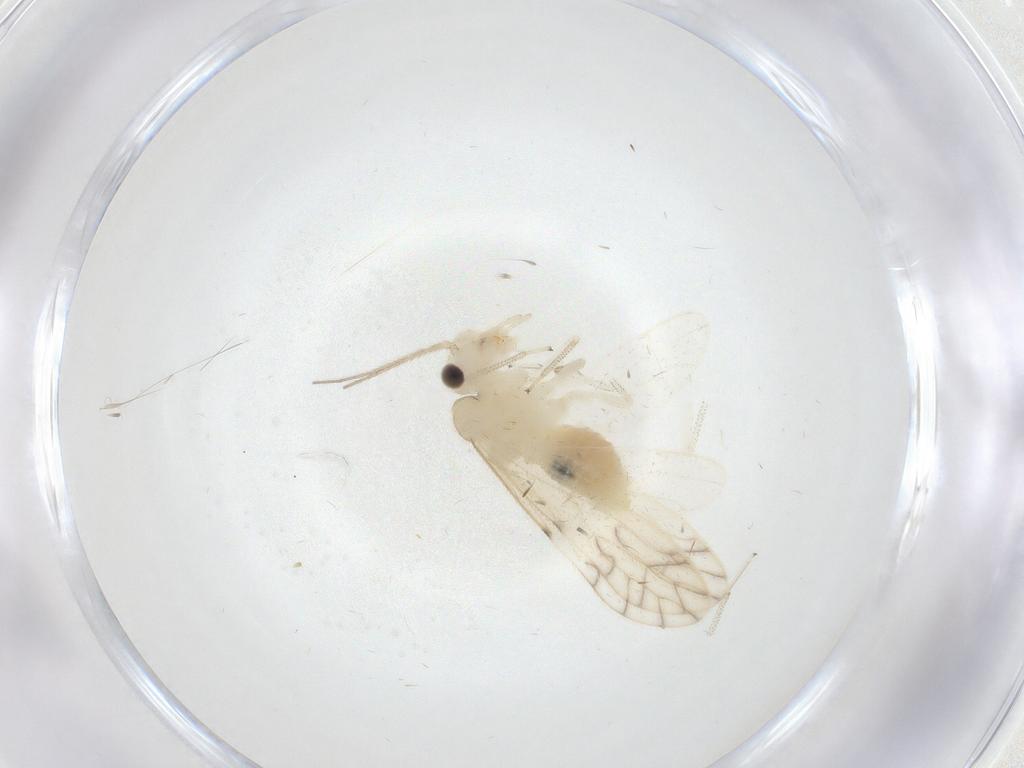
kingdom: Animalia
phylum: Arthropoda
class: Insecta
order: Psocodea
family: Caeciliusidae
